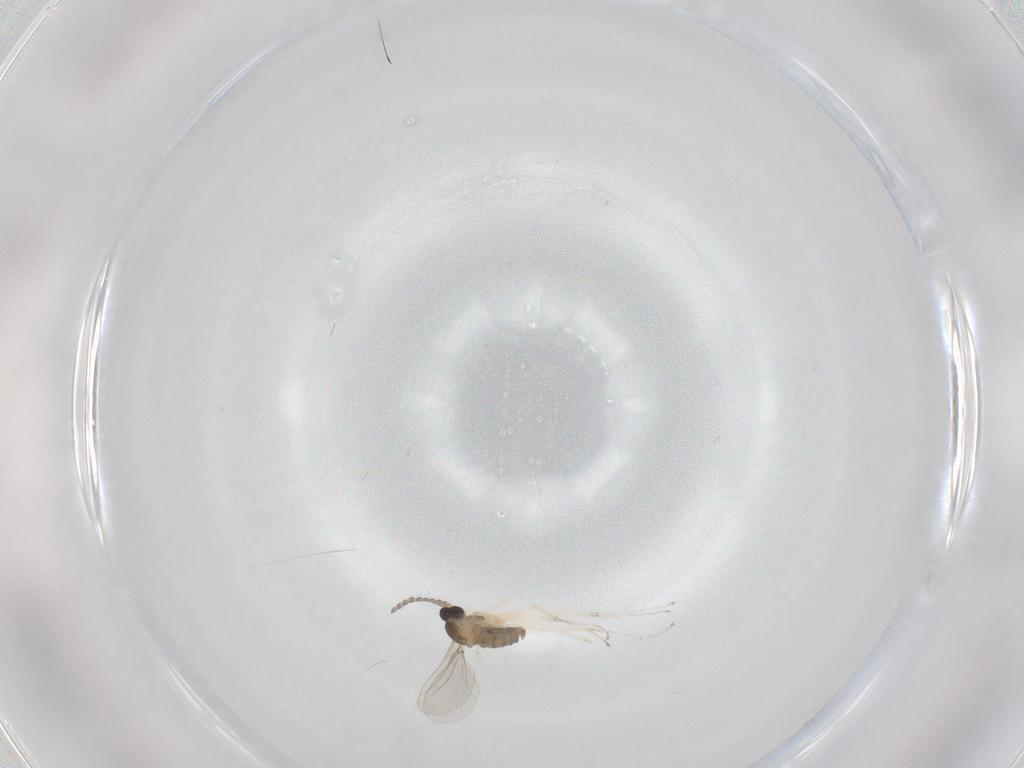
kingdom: Animalia
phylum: Arthropoda
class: Insecta
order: Diptera
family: Cecidomyiidae
